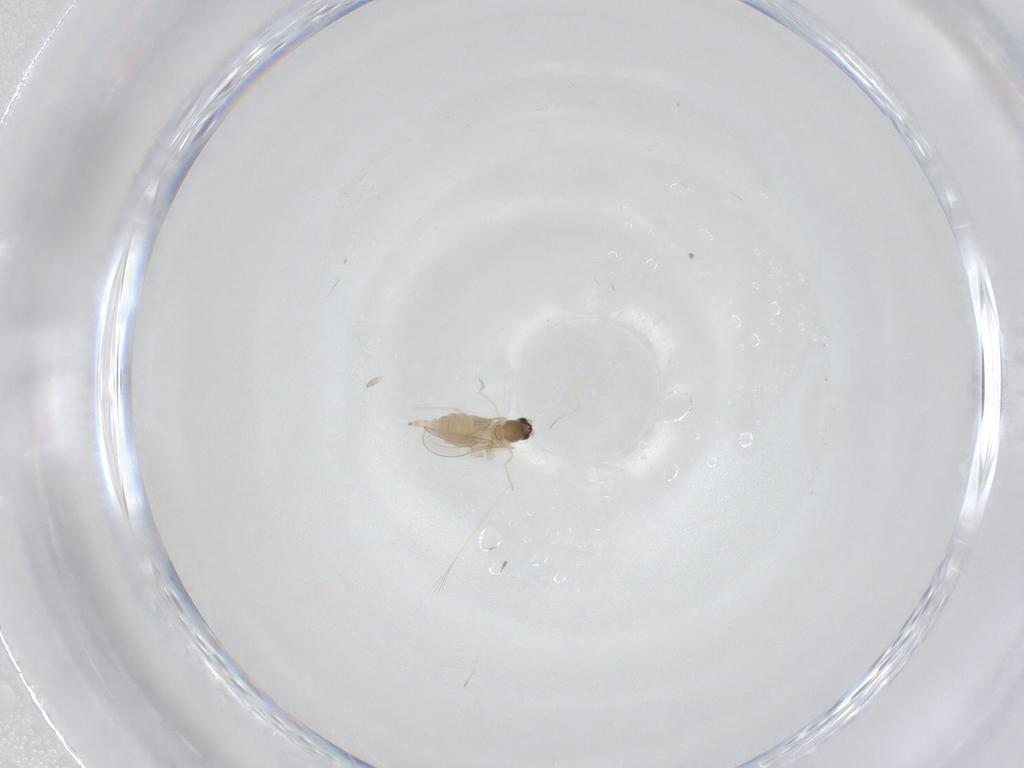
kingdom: Animalia
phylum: Arthropoda
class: Insecta
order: Diptera
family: Cecidomyiidae
